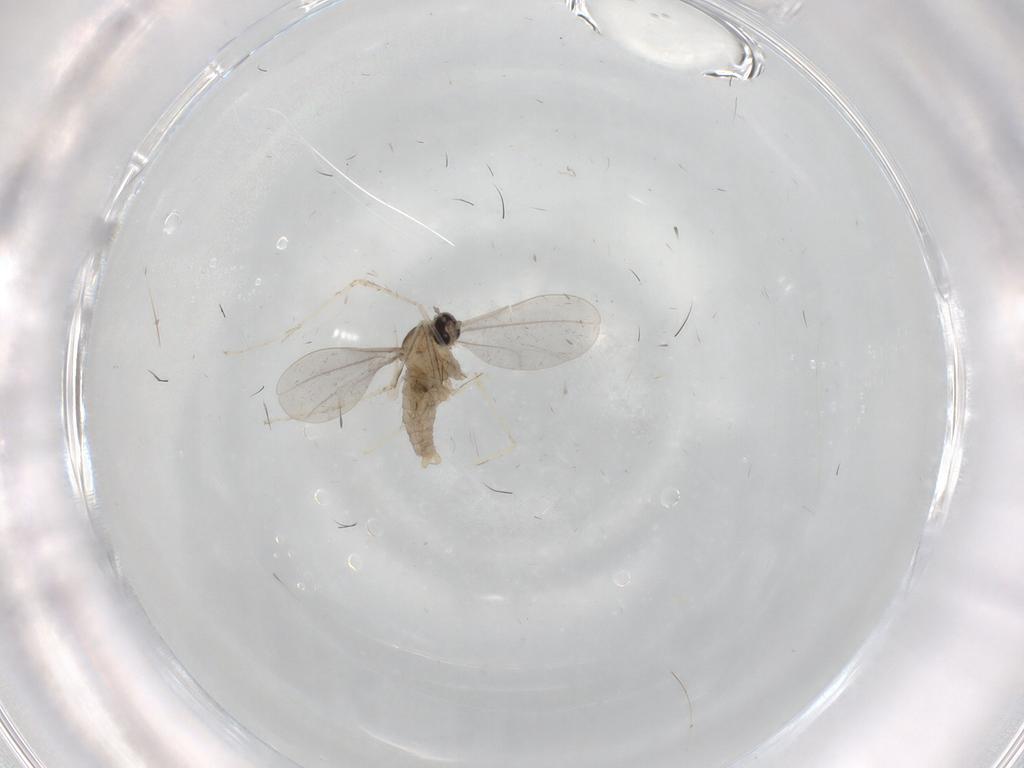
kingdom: Animalia
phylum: Arthropoda
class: Insecta
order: Diptera
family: Cecidomyiidae
